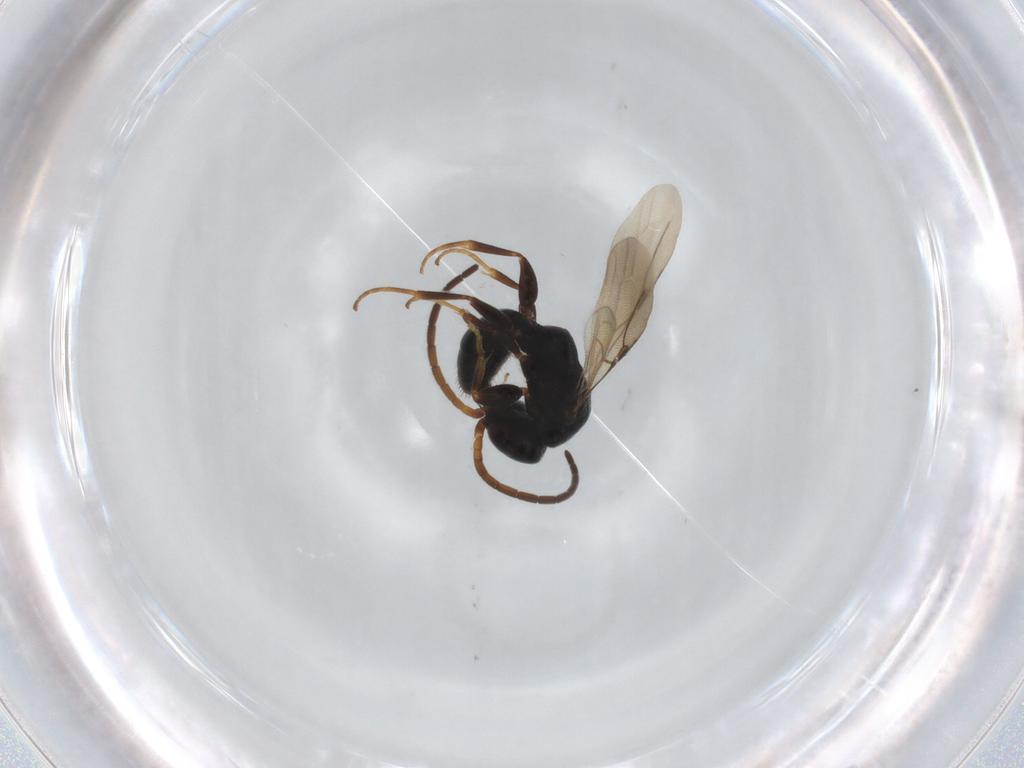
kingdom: Animalia
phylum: Arthropoda
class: Insecta
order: Hymenoptera
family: Bethylidae
